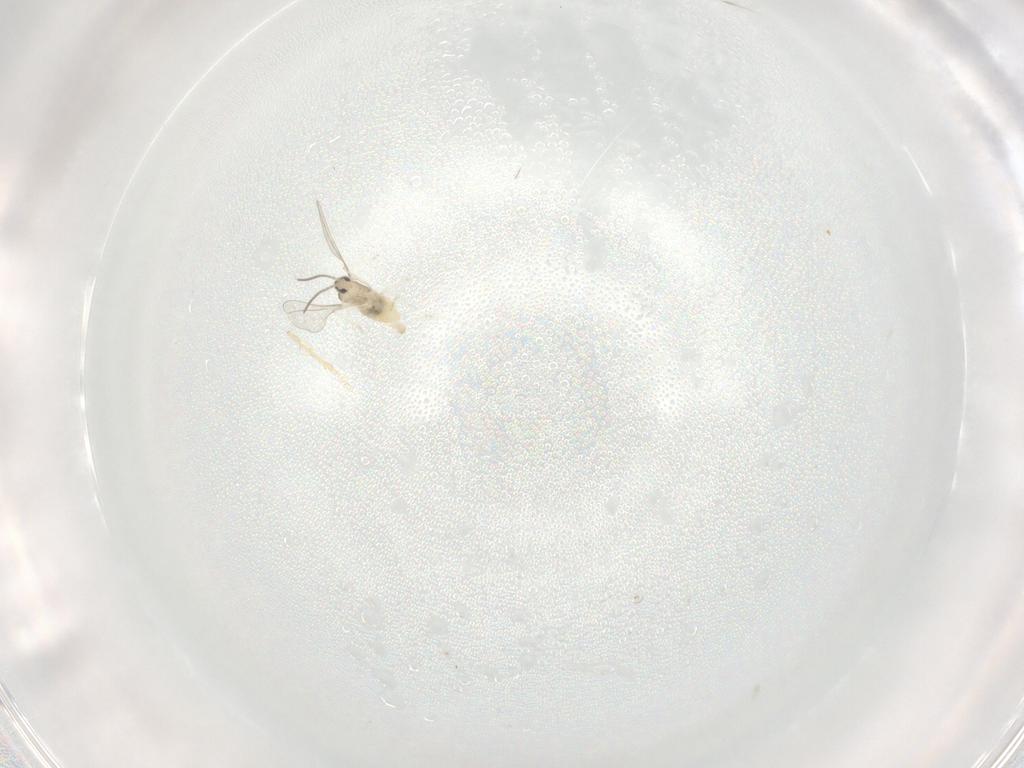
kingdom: Animalia
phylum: Arthropoda
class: Insecta
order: Diptera
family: Cecidomyiidae
